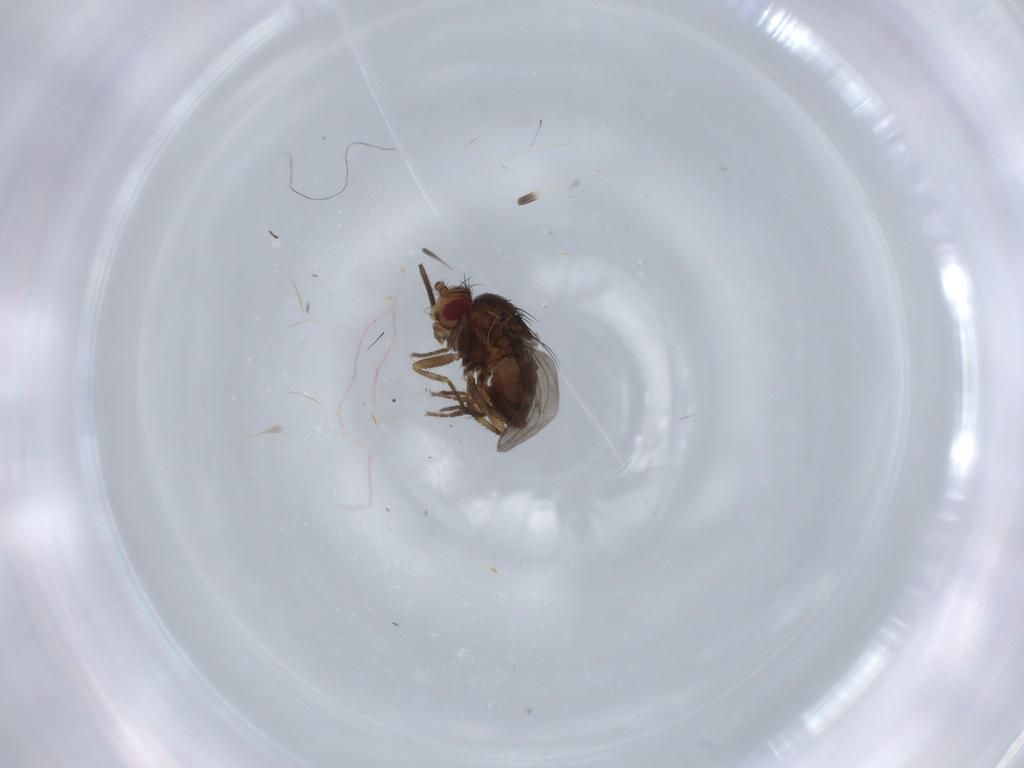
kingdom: Animalia
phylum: Arthropoda
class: Insecta
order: Diptera
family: Sphaeroceridae
